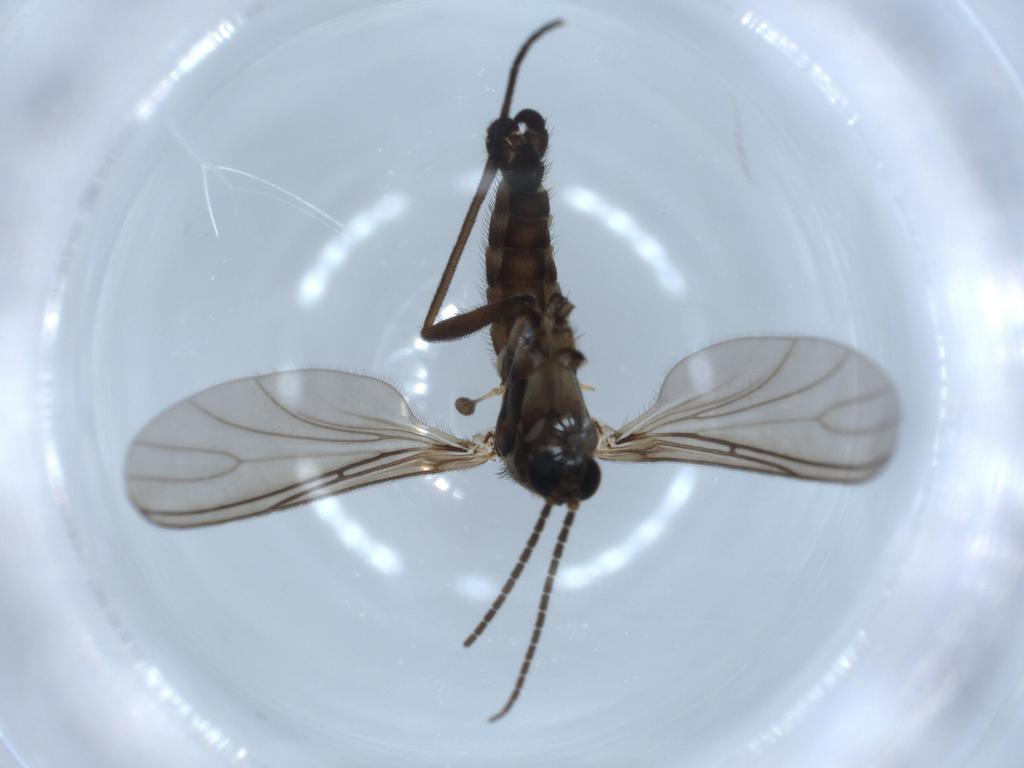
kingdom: Animalia
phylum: Arthropoda
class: Insecta
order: Diptera
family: Sciaridae
